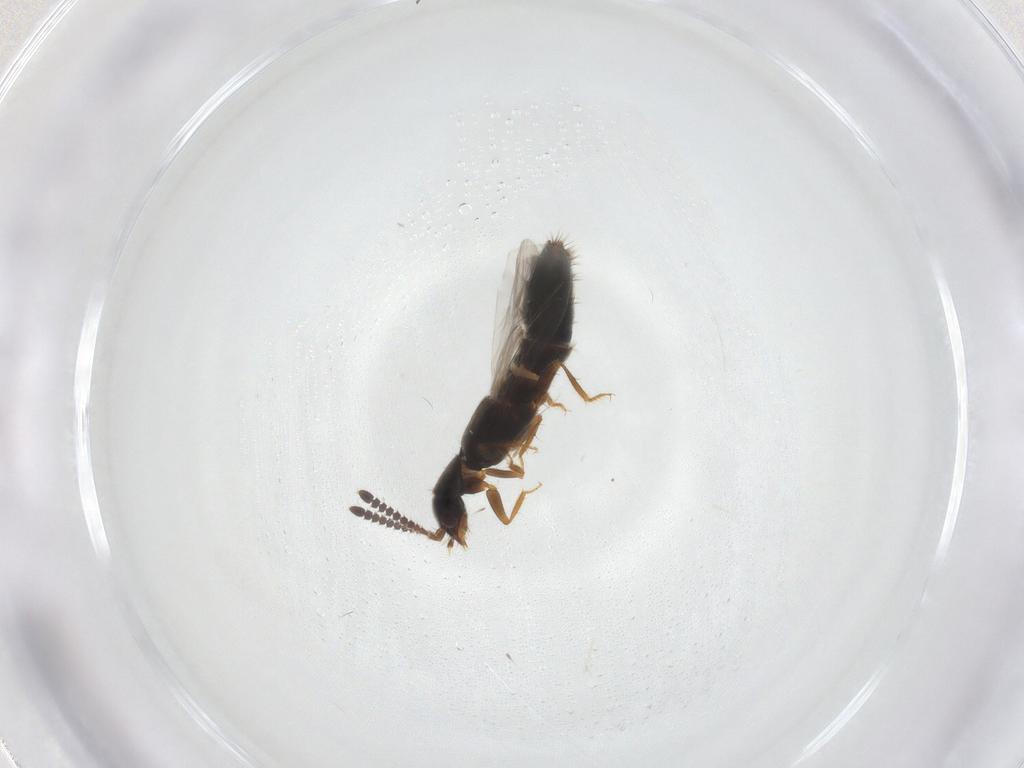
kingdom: Animalia
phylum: Arthropoda
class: Insecta
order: Coleoptera
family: Staphylinidae
